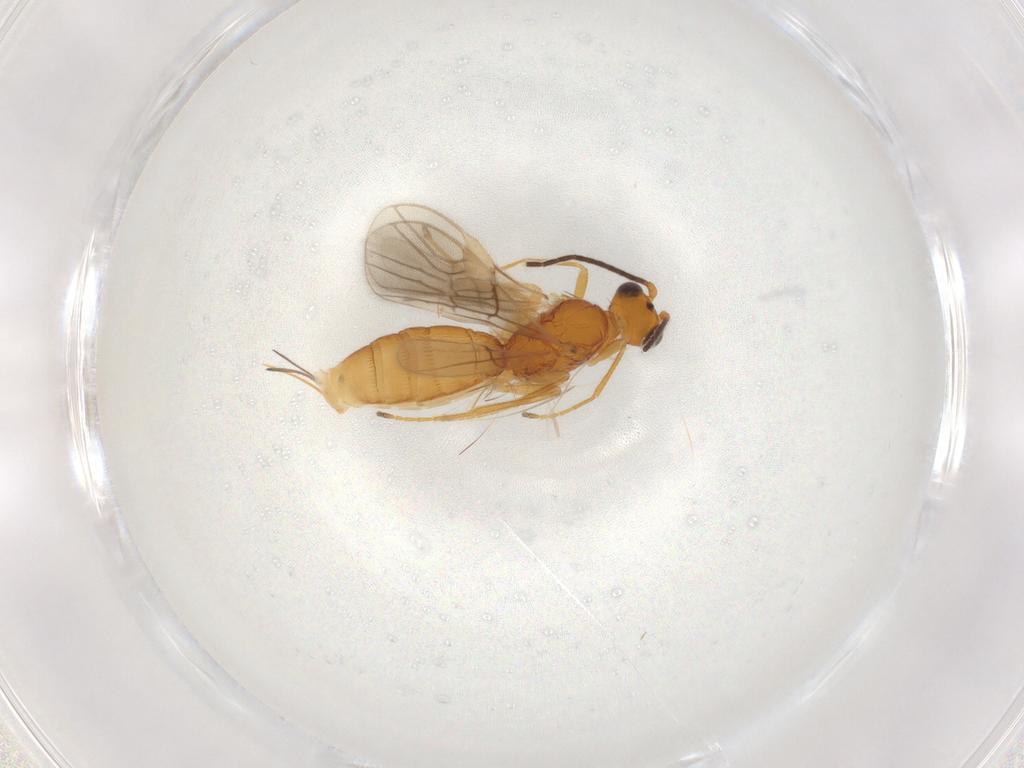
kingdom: Animalia
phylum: Arthropoda
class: Insecta
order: Hymenoptera
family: Braconidae
